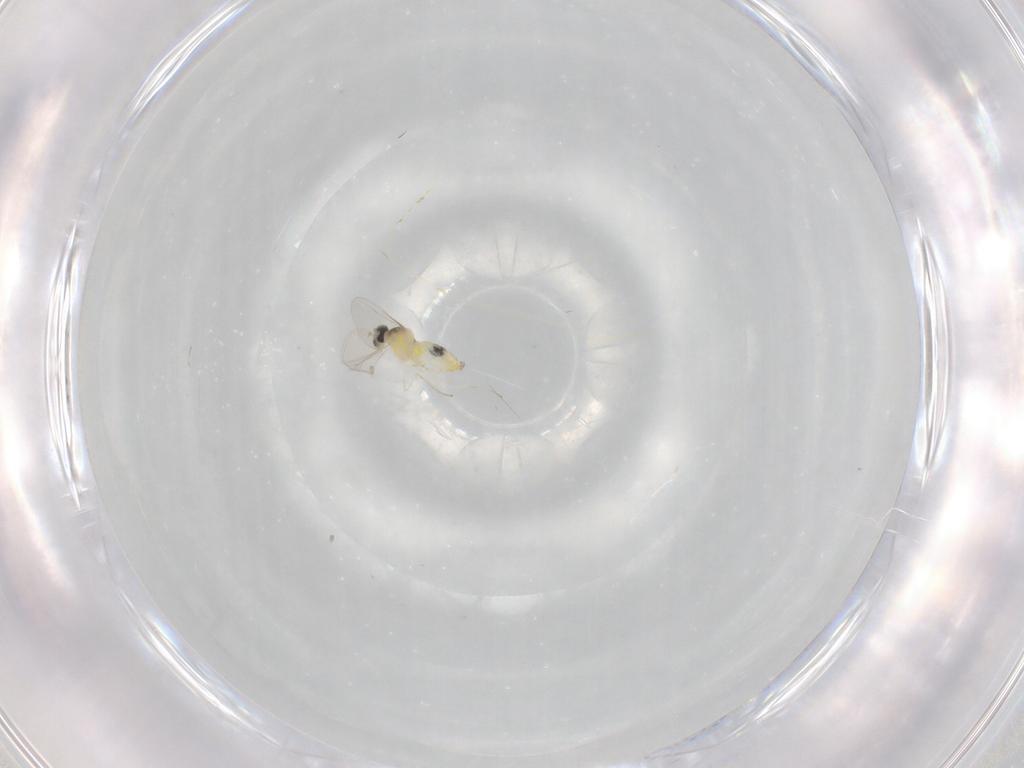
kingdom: Animalia
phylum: Arthropoda
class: Insecta
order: Diptera
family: Cecidomyiidae
